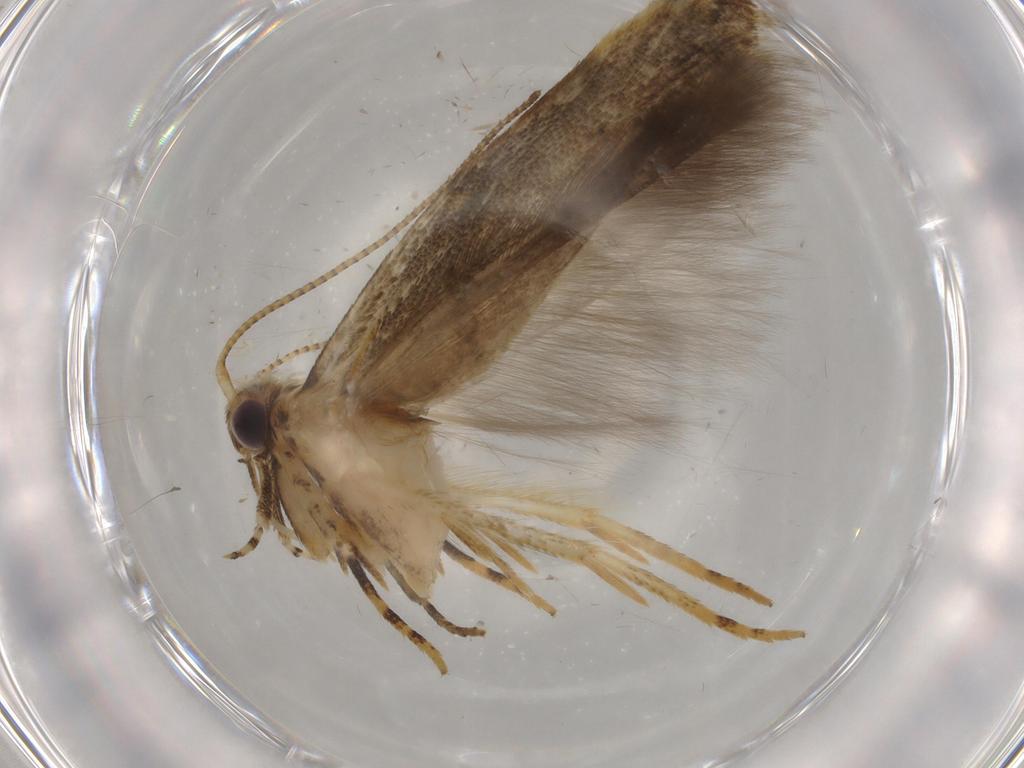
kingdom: Animalia
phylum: Arthropoda
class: Insecta
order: Lepidoptera
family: Gelechiidae
